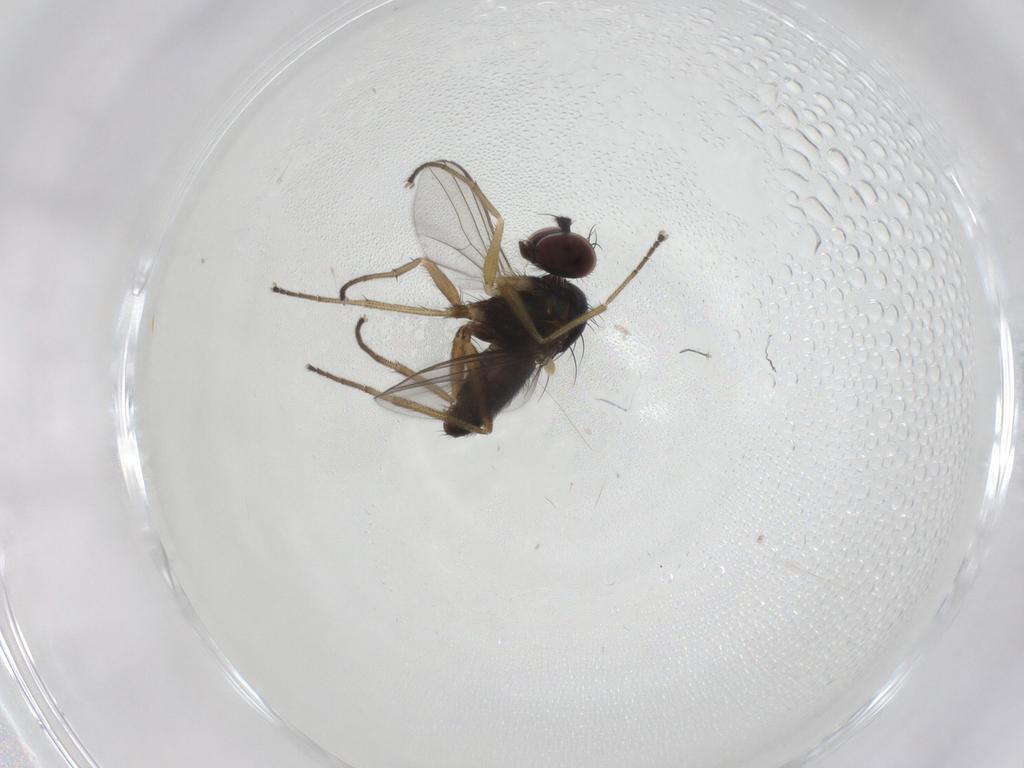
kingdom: Animalia
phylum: Arthropoda
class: Insecta
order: Diptera
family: Dolichopodidae
